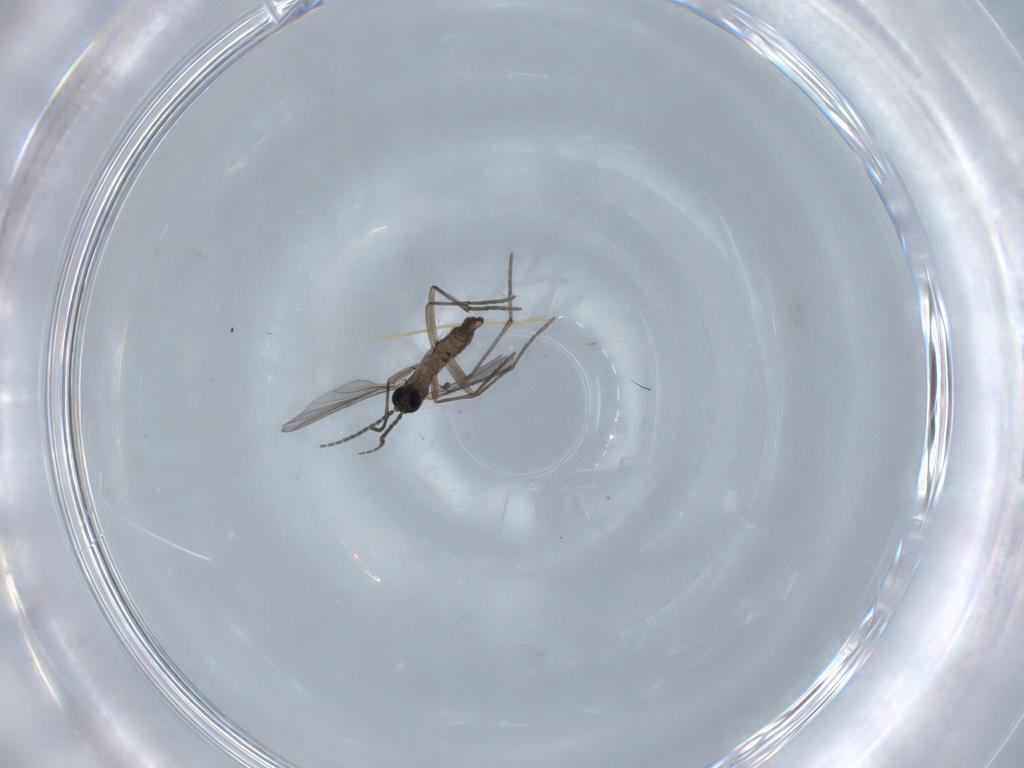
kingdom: Animalia
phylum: Arthropoda
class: Insecta
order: Diptera
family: Sciaridae
